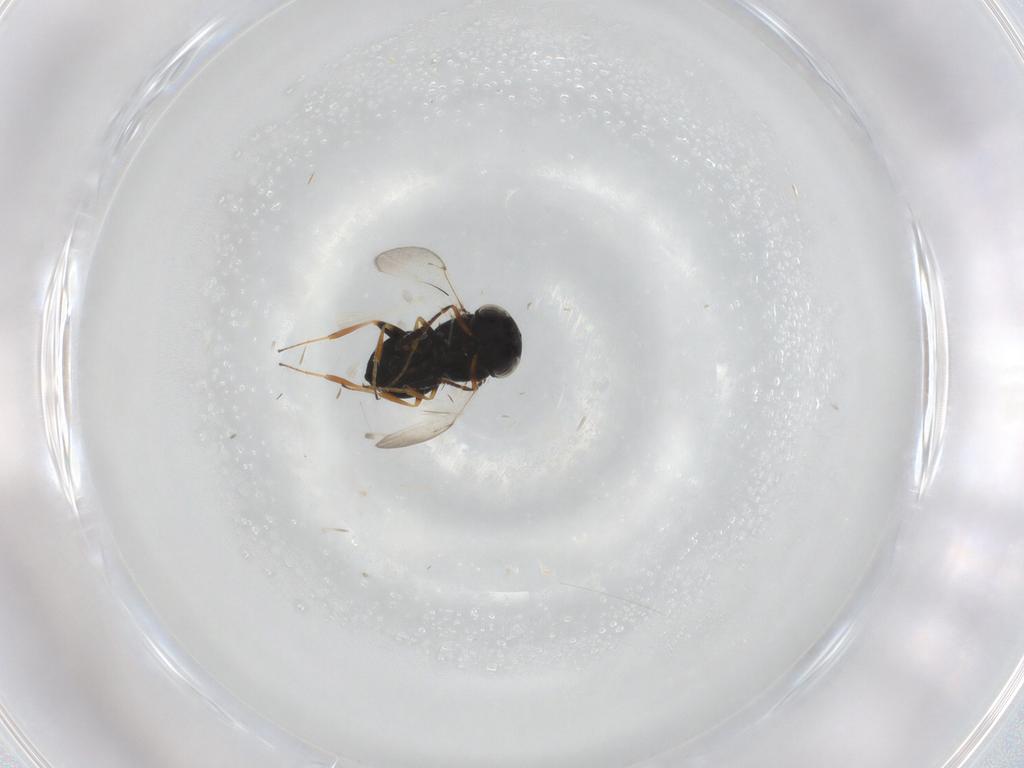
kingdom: Animalia
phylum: Arthropoda
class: Insecta
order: Coleoptera
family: Curculionidae
